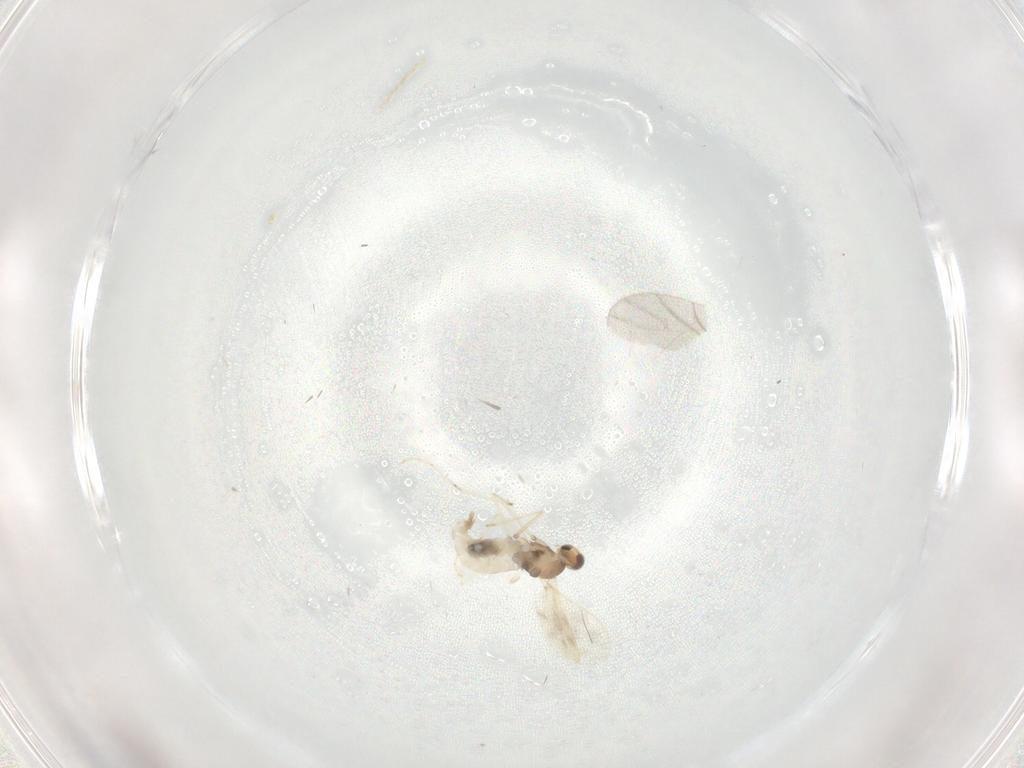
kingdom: Animalia
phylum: Arthropoda
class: Insecta
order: Diptera
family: Cecidomyiidae
